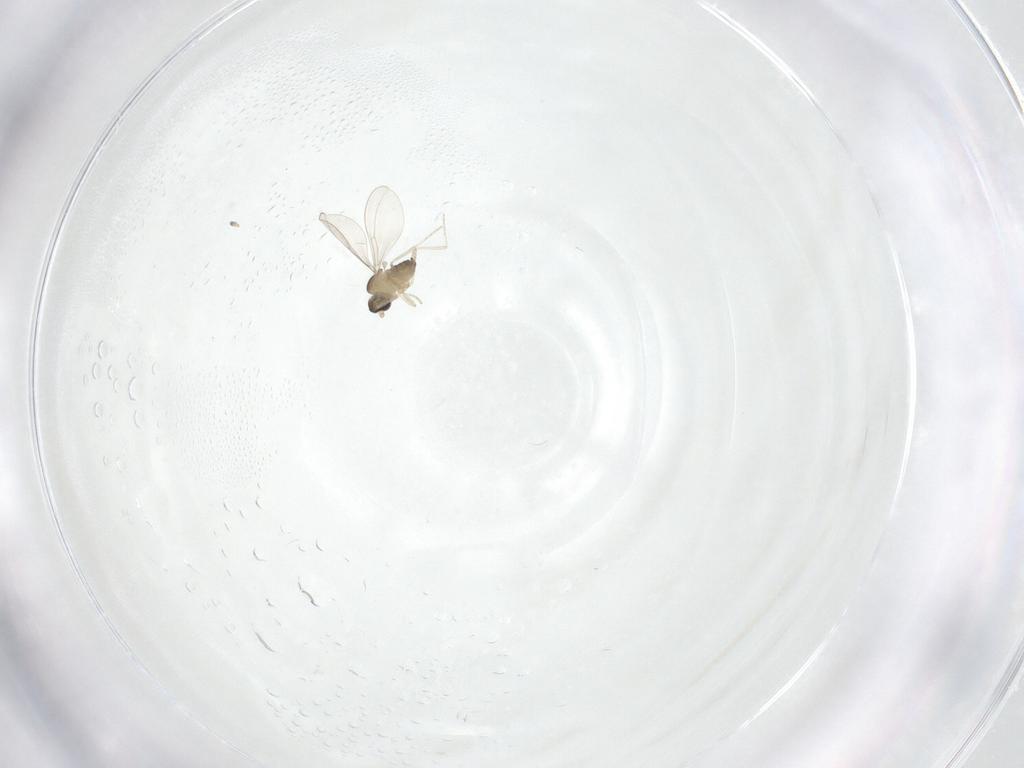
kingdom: Animalia
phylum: Arthropoda
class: Insecta
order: Diptera
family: Cecidomyiidae
